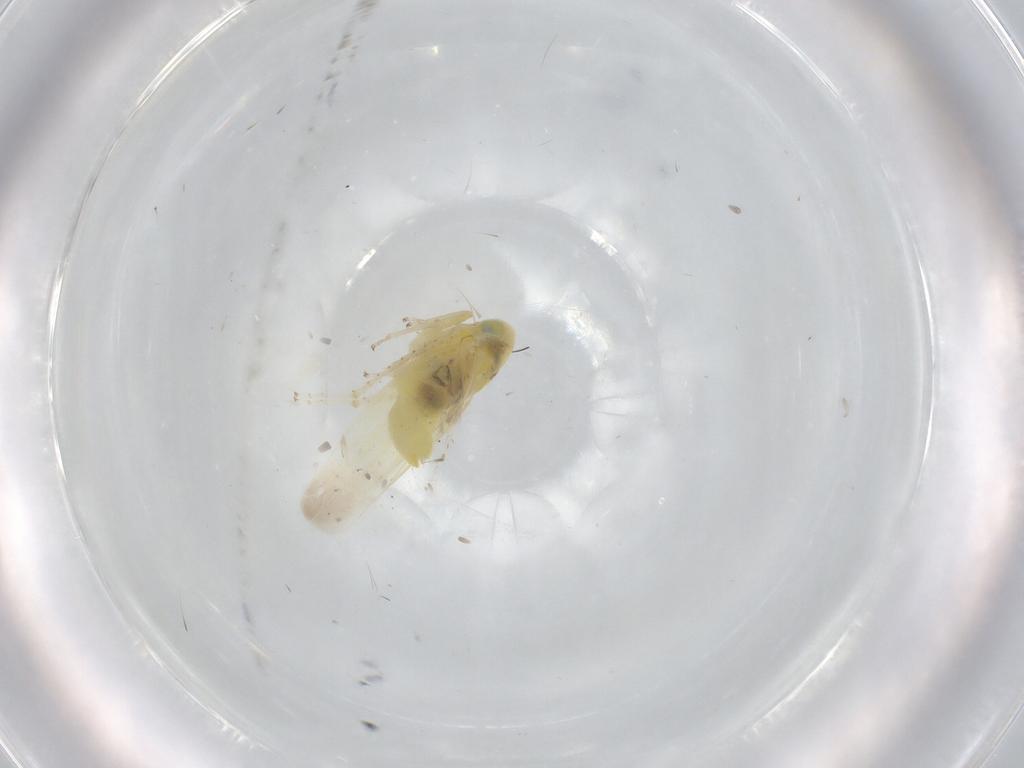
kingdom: Animalia
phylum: Arthropoda
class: Insecta
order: Hemiptera
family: Cicadellidae
